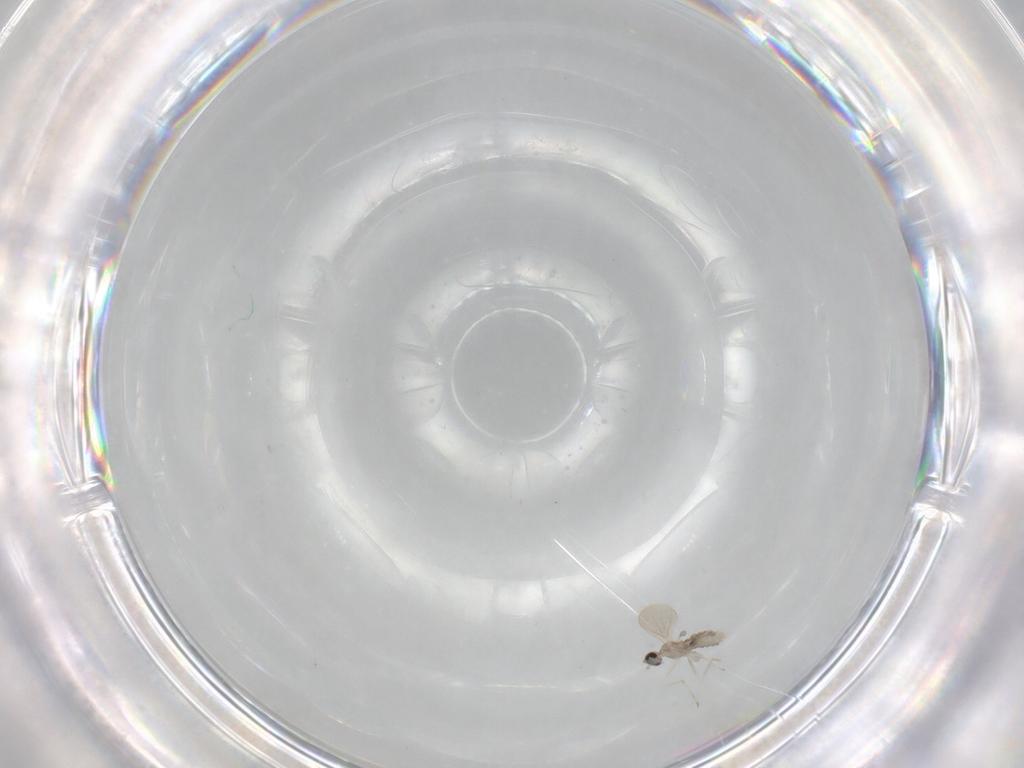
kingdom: Animalia
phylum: Arthropoda
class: Insecta
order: Diptera
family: Cecidomyiidae
